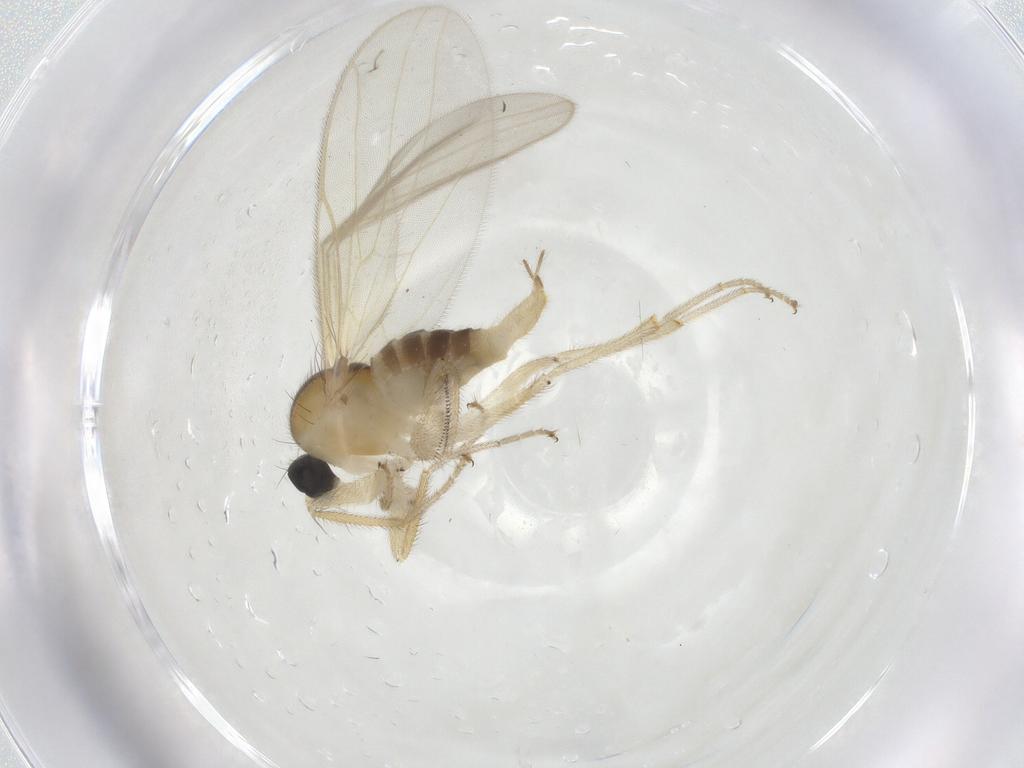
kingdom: Animalia
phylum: Arthropoda
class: Insecta
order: Diptera
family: Hybotidae
